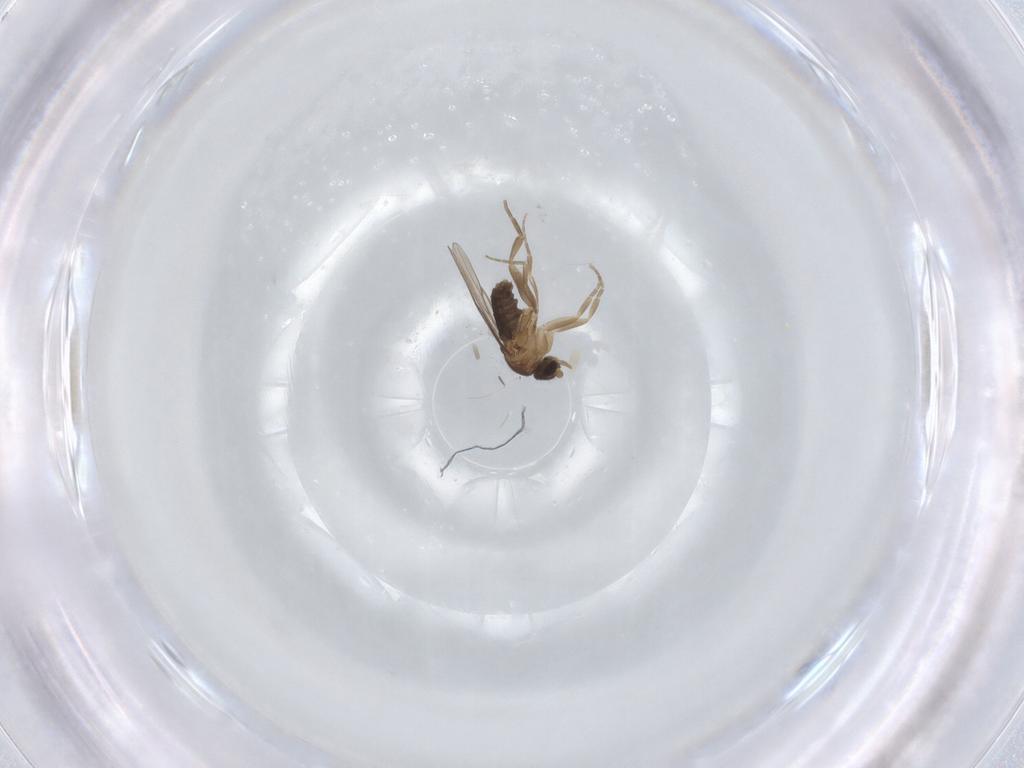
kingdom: Animalia
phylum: Arthropoda
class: Insecta
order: Diptera
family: Phoridae
